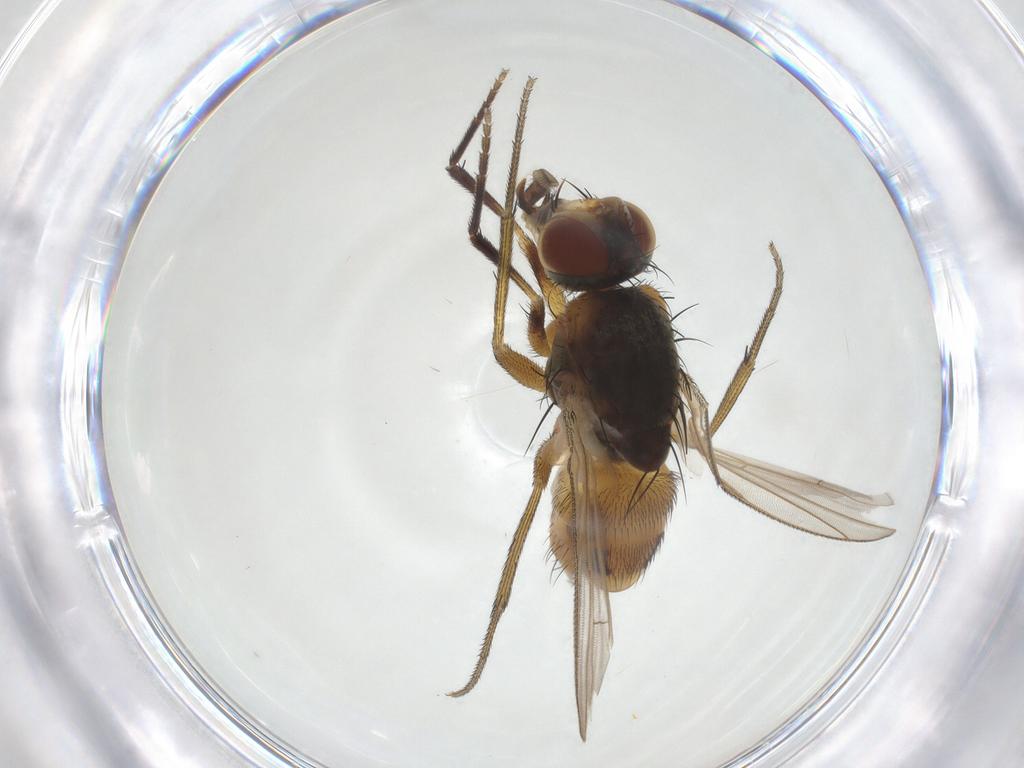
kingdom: Animalia
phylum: Arthropoda
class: Insecta
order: Diptera
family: Muscidae
